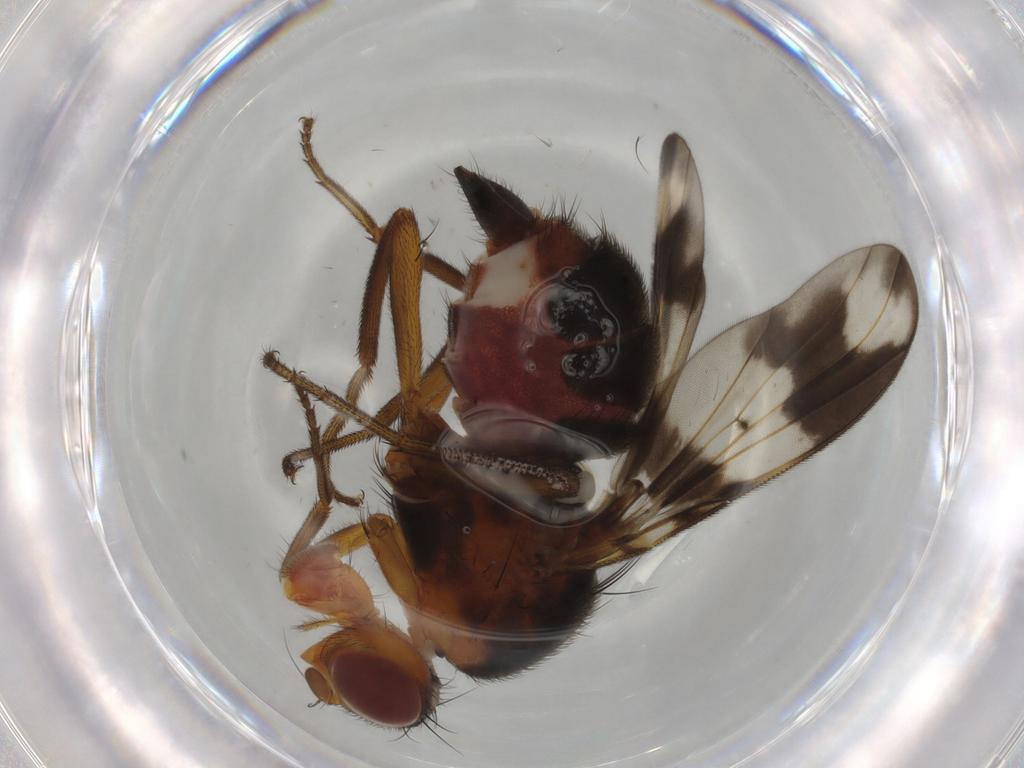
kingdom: Animalia
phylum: Arthropoda
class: Insecta
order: Diptera
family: Richardiidae
